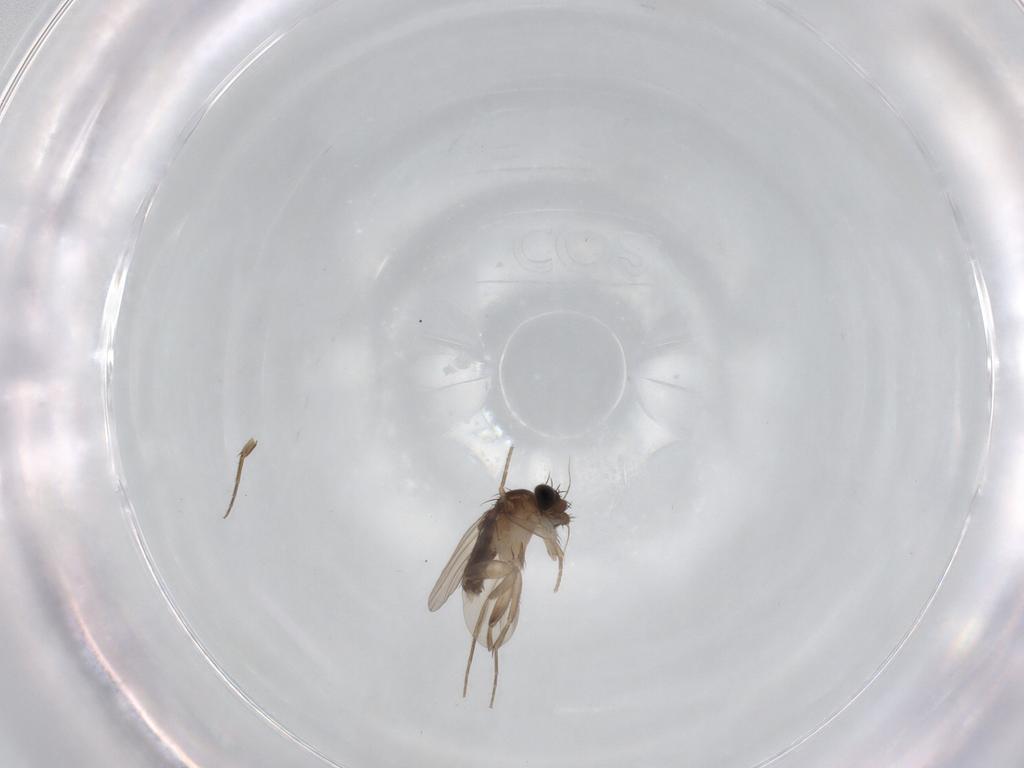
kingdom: Animalia
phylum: Arthropoda
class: Insecta
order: Diptera
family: Phoridae
